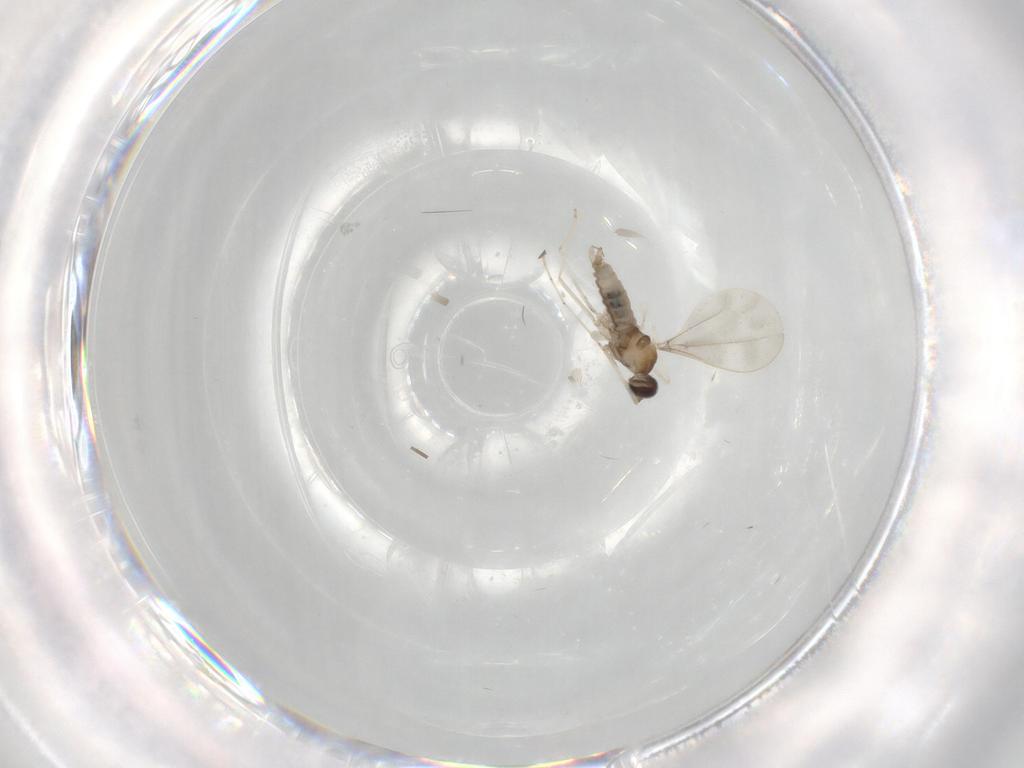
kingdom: Animalia
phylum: Arthropoda
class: Insecta
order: Diptera
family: Cecidomyiidae
